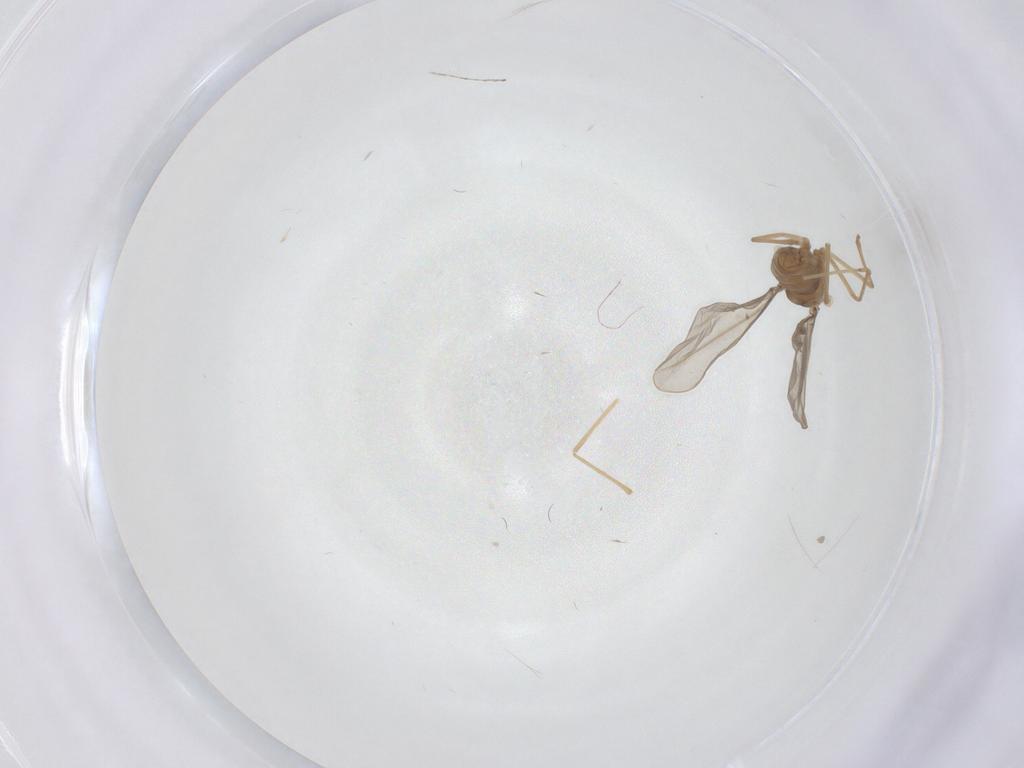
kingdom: Animalia
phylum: Arthropoda
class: Insecta
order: Diptera
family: Cecidomyiidae
